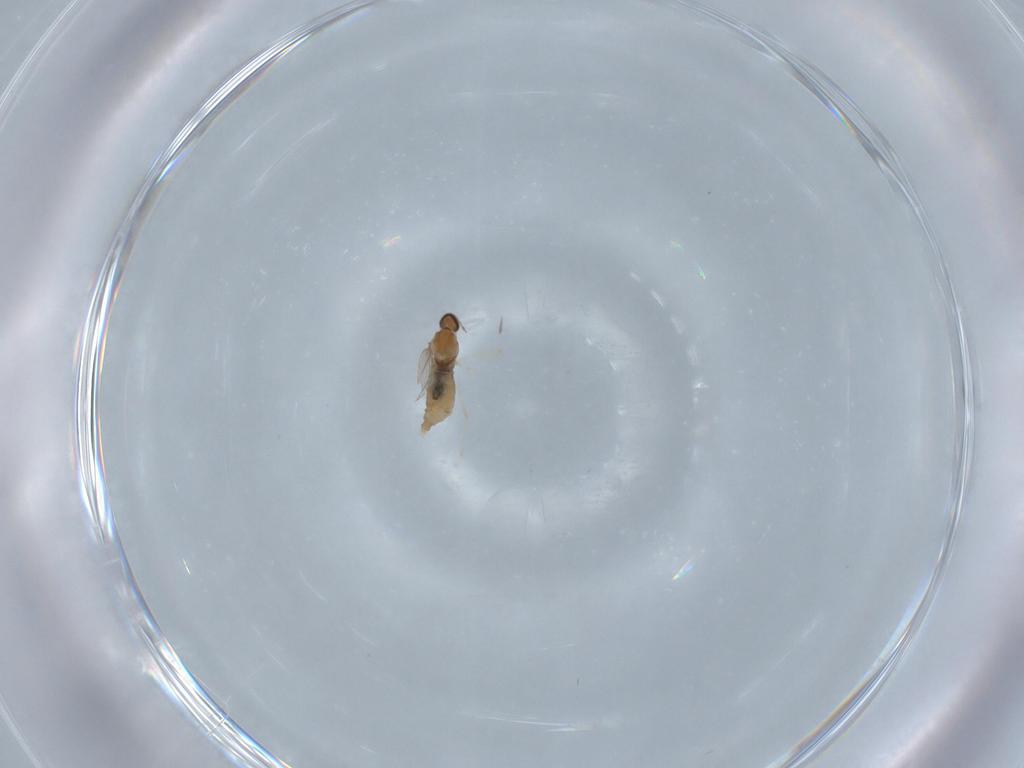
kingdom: Animalia
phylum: Arthropoda
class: Insecta
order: Diptera
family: Cecidomyiidae
